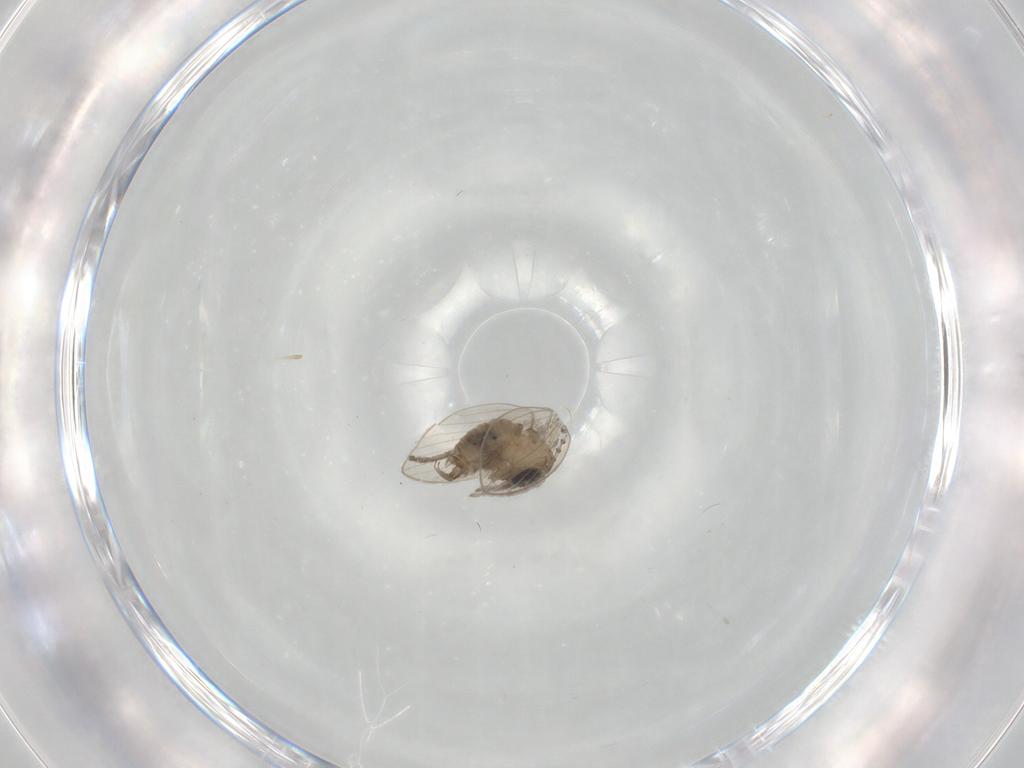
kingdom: Animalia
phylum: Arthropoda
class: Insecta
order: Diptera
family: Psychodidae
